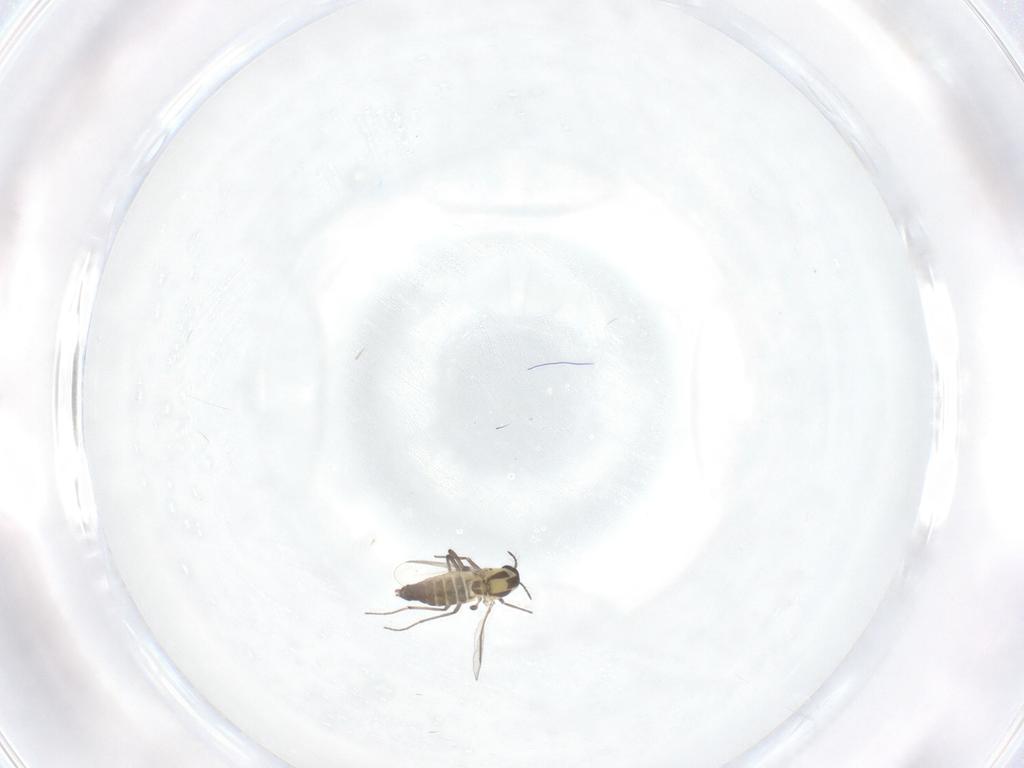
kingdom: Animalia
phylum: Arthropoda
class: Insecta
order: Diptera
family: Chironomidae
